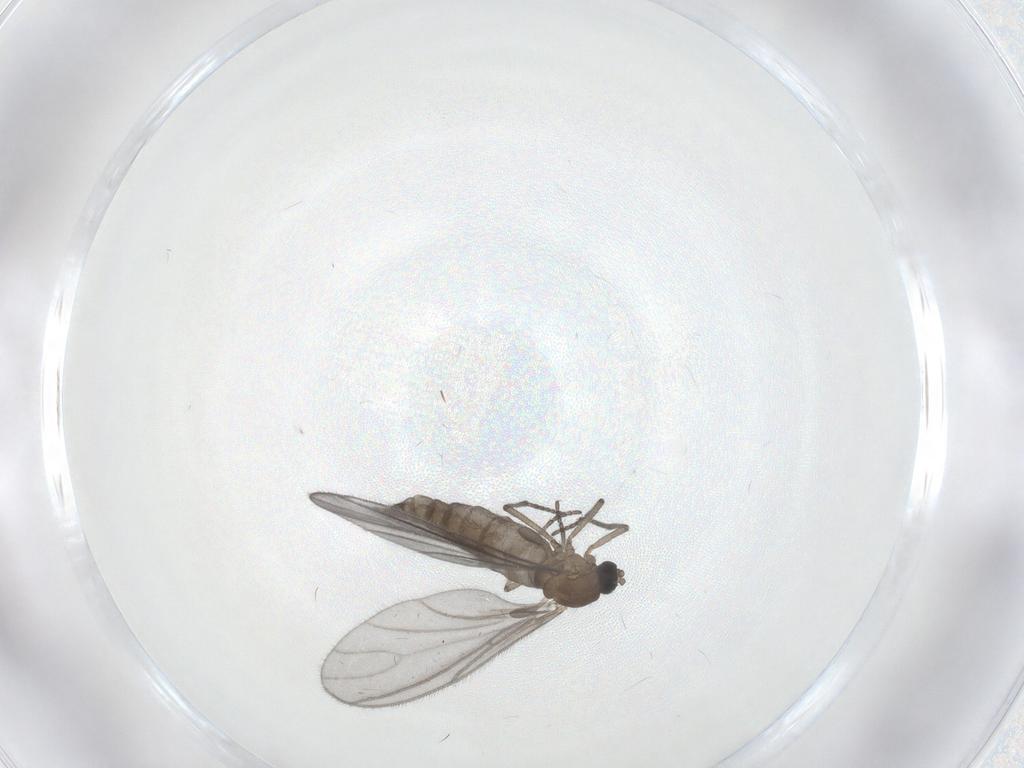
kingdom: Animalia
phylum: Arthropoda
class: Insecta
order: Diptera
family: Sciaridae
